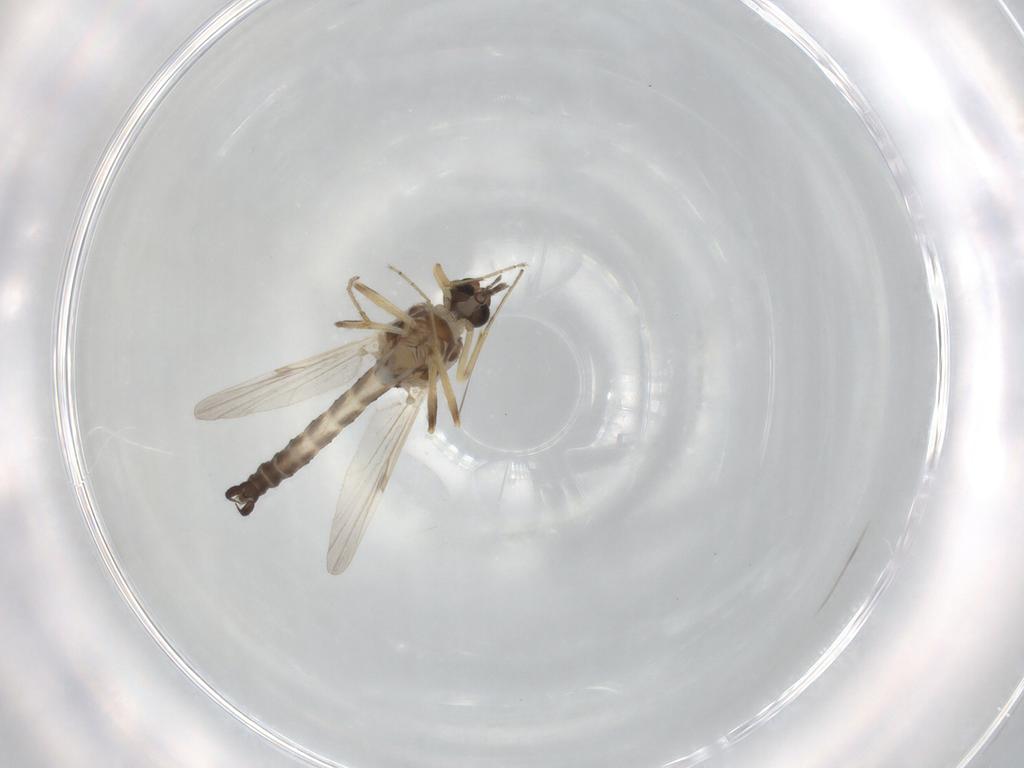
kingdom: Animalia
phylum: Arthropoda
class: Insecta
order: Diptera
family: Ceratopogonidae
